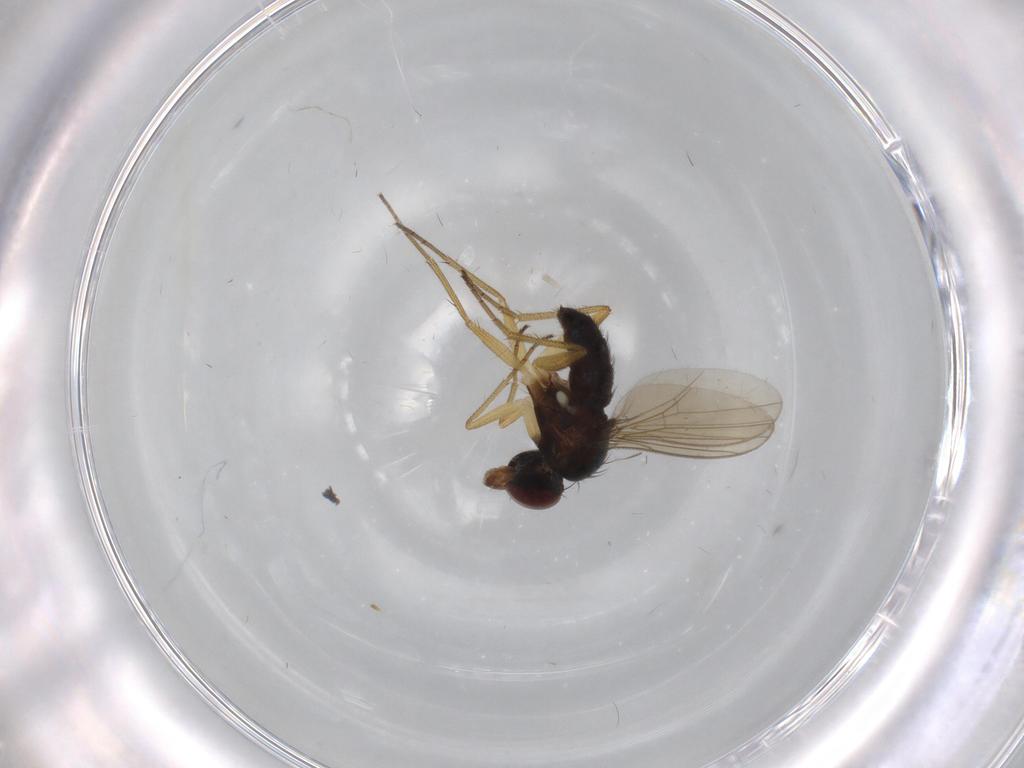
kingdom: Animalia
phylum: Arthropoda
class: Insecta
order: Diptera
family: Dolichopodidae
